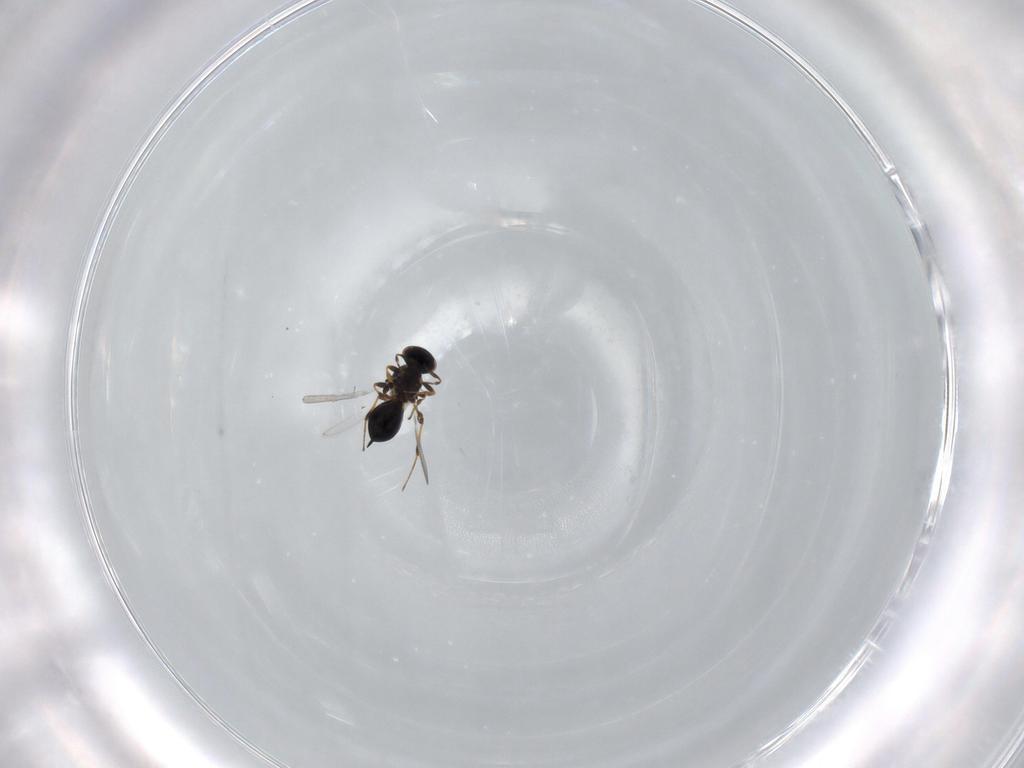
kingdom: Animalia
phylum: Arthropoda
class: Insecta
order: Hymenoptera
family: Platygastridae
